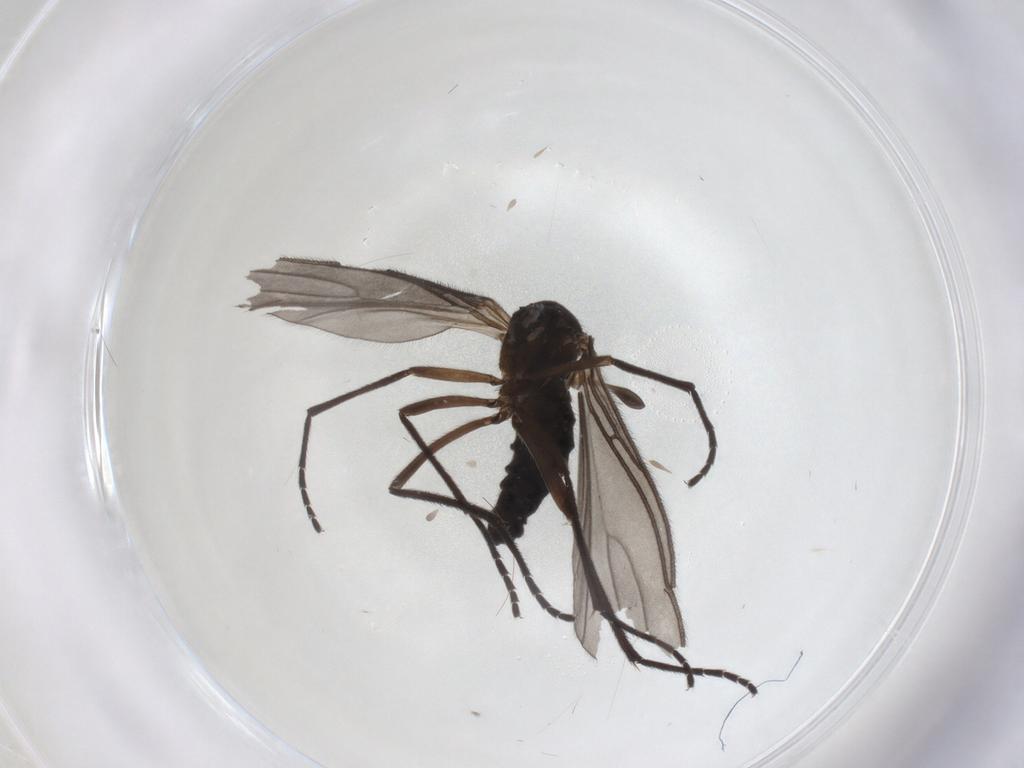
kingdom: Animalia
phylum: Arthropoda
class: Insecta
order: Diptera
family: Sciaridae
